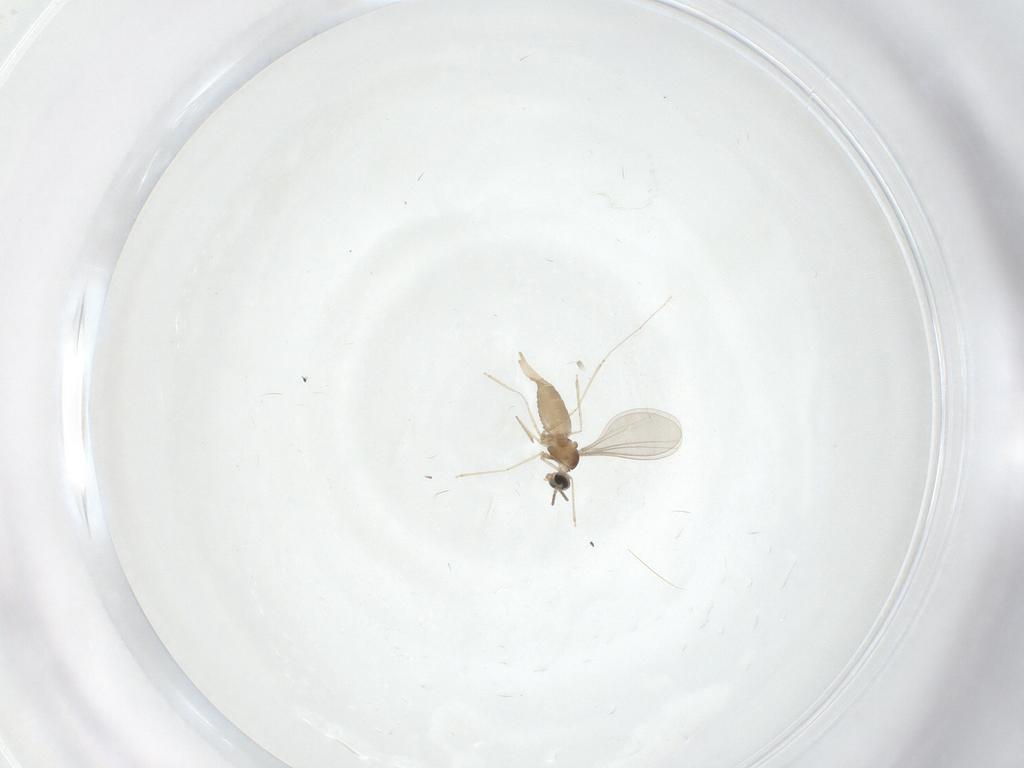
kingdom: Animalia
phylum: Arthropoda
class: Insecta
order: Diptera
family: Cecidomyiidae
